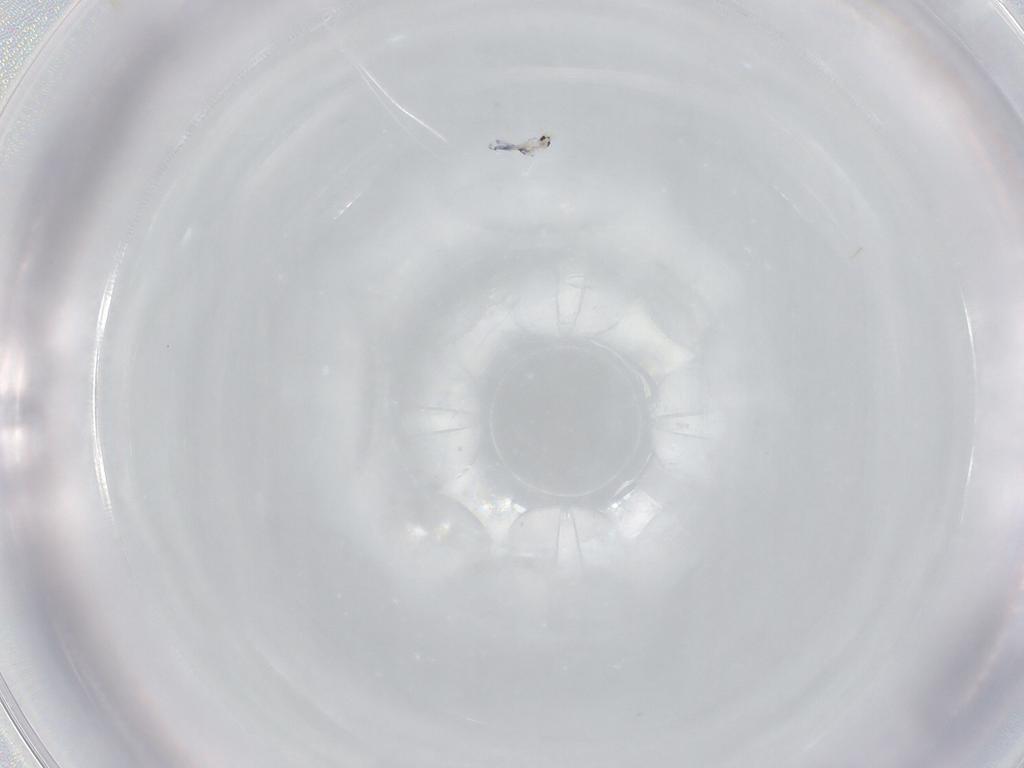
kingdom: Animalia
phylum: Arthropoda
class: Collembola
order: Entomobryomorpha
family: Entomobryidae
